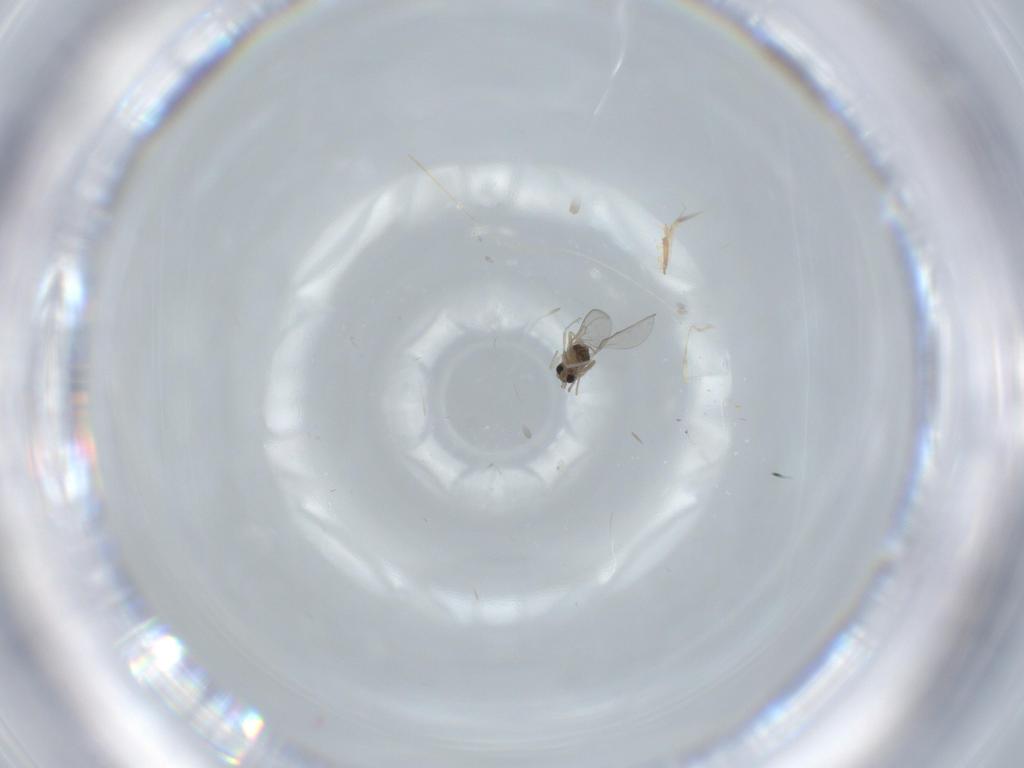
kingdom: Animalia
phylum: Arthropoda
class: Insecta
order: Diptera
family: Cecidomyiidae
